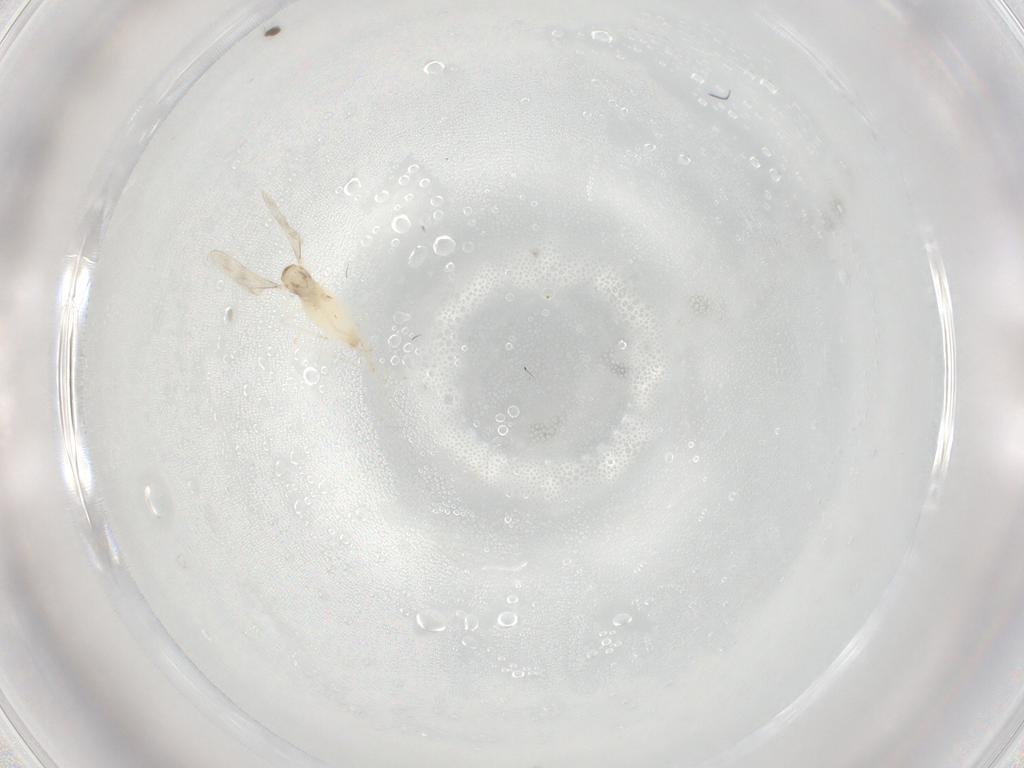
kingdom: Animalia
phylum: Arthropoda
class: Insecta
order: Diptera
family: Cecidomyiidae
